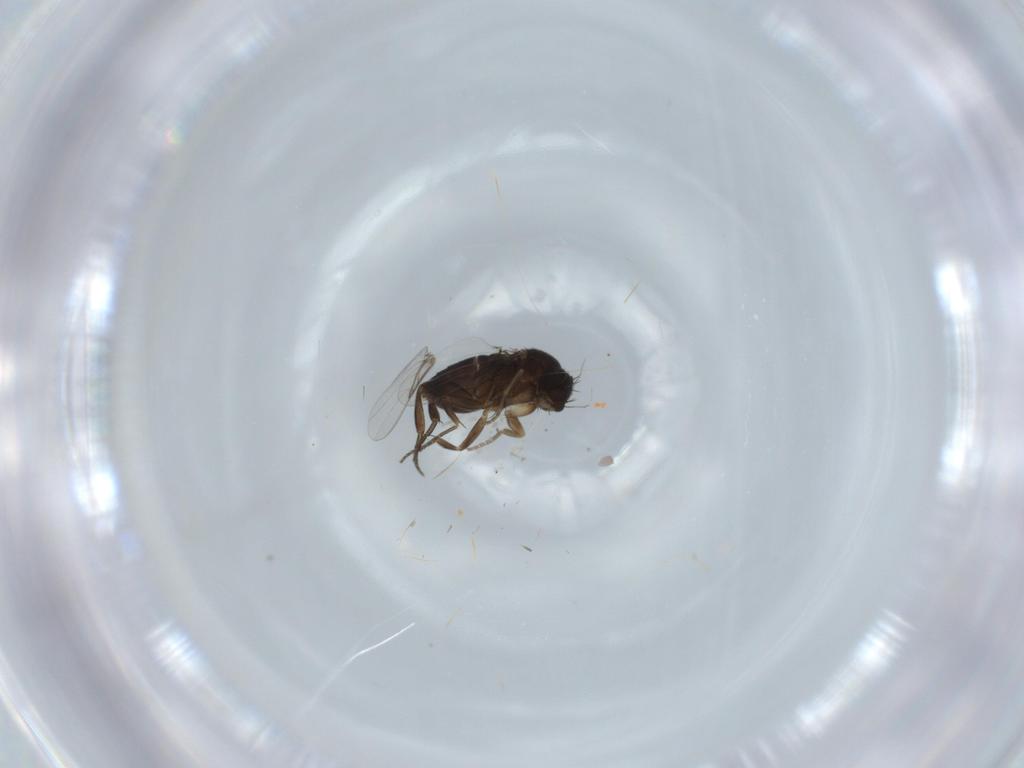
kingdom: Animalia
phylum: Arthropoda
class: Insecta
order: Diptera
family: Phoridae
